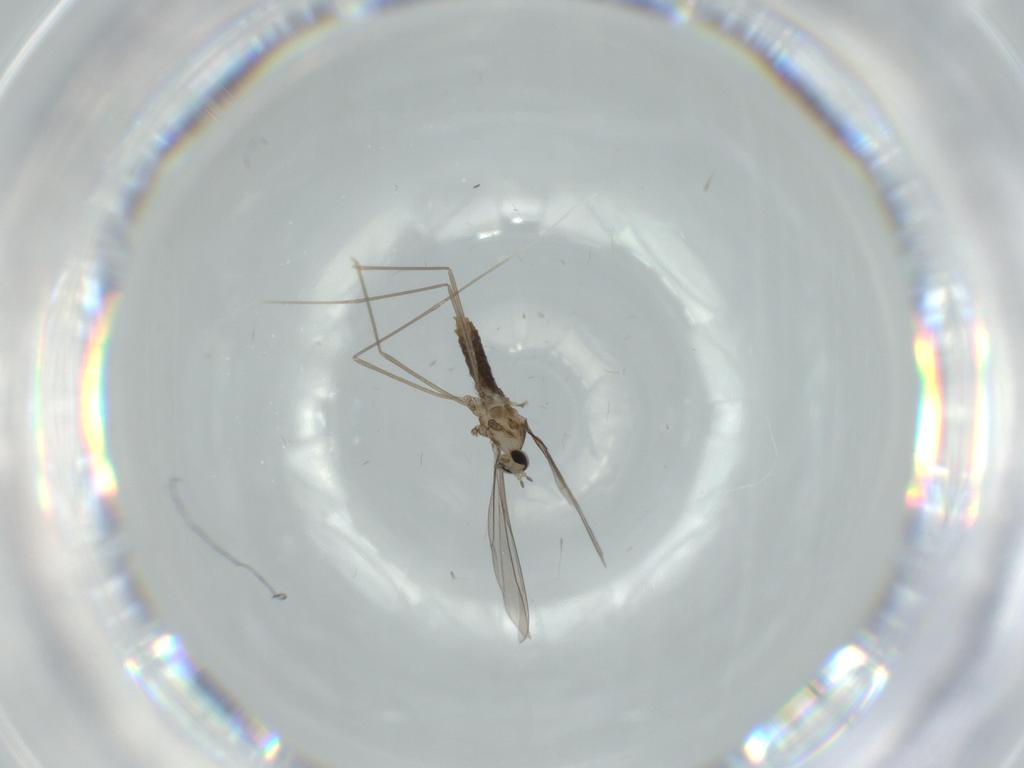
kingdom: Animalia
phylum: Arthropoda
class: Insecta
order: Diptera
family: Cecidomyiidae
